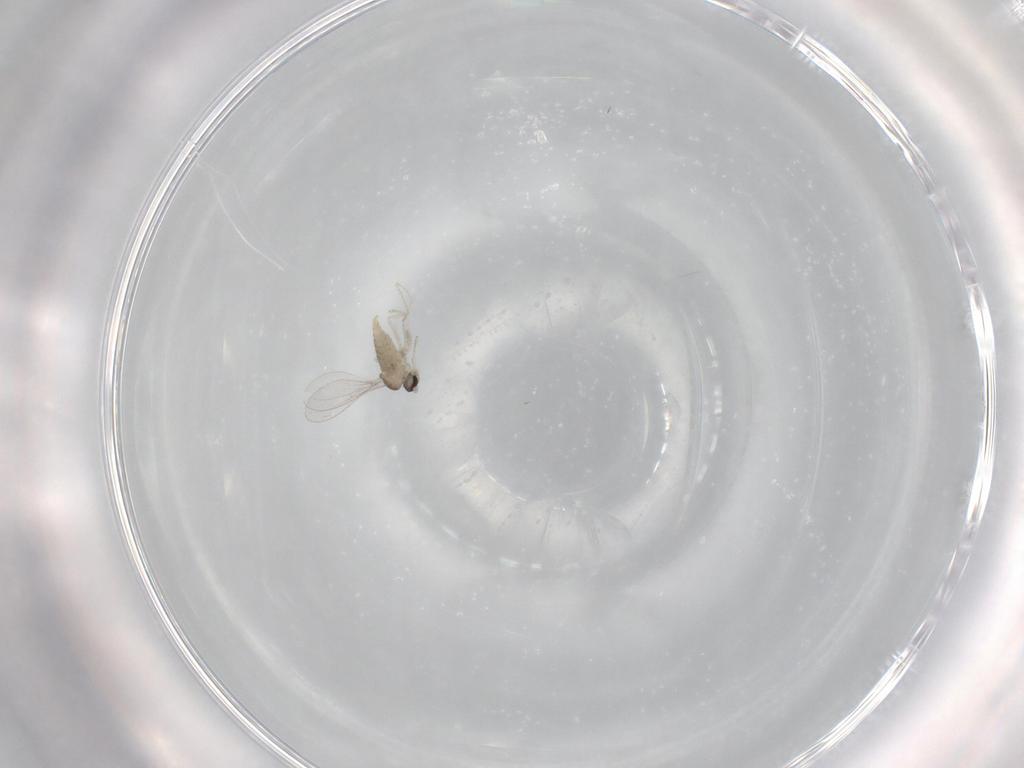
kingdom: Animalia
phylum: Arthropoda
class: Insecta
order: Diptera
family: Cecidomyiidae
